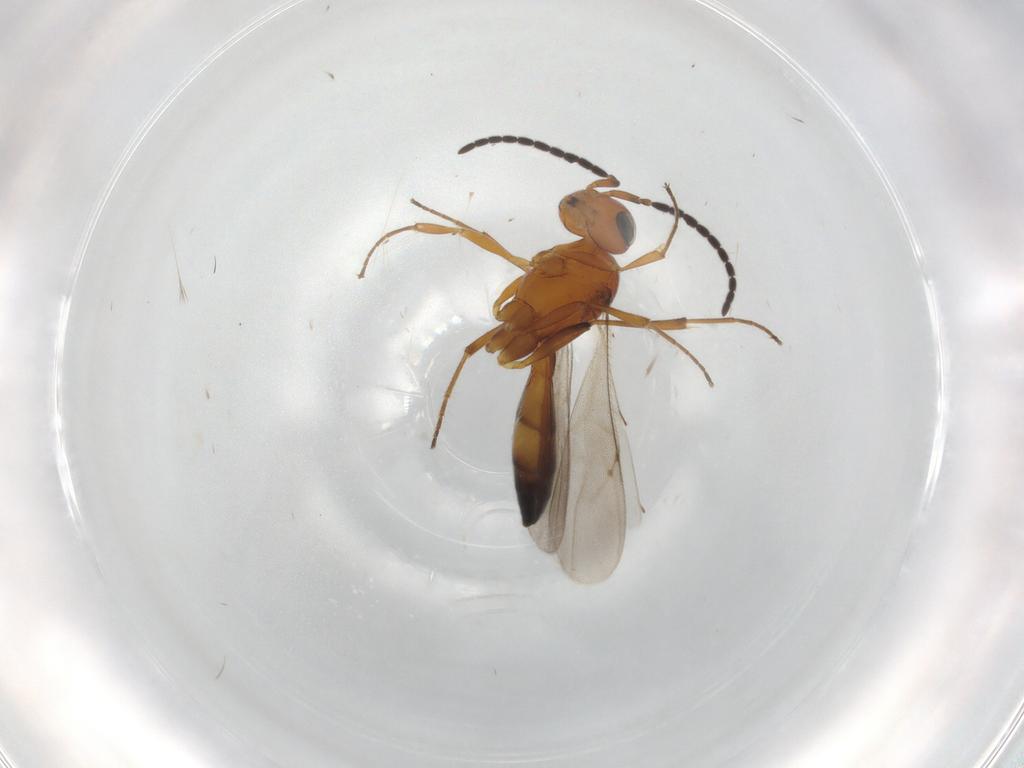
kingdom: Animalia
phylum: Arthropoda
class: Insecta
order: Hymenoptera
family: Scelionidae
